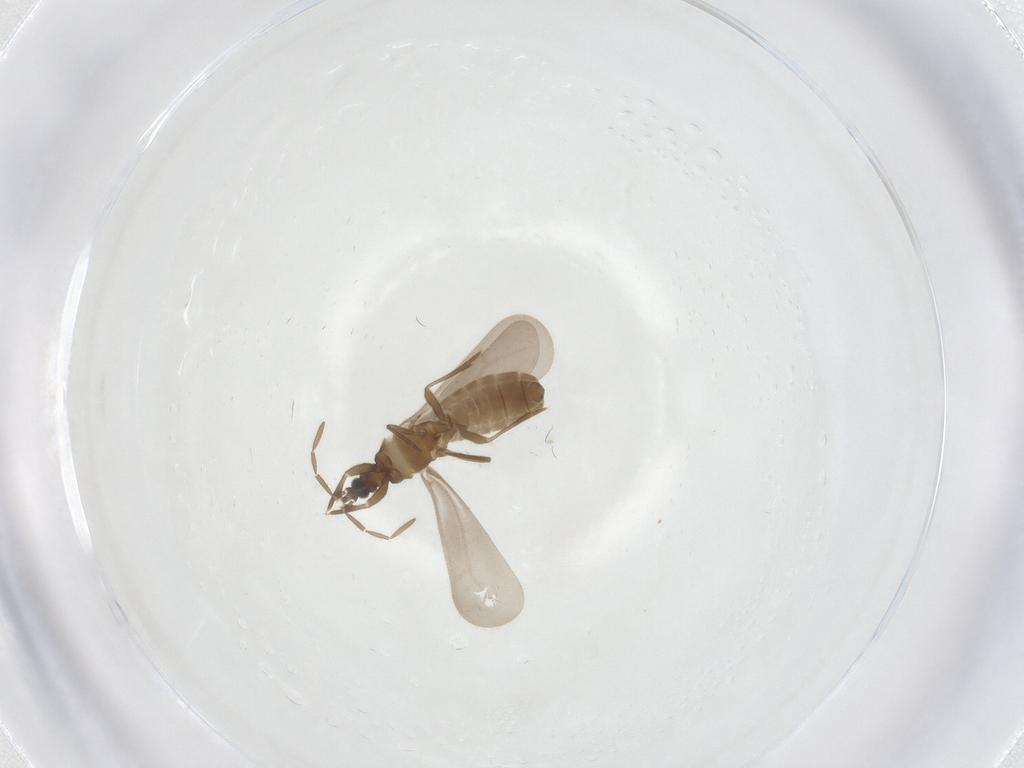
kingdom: Animalia
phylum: Arthropoda
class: Insecta
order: Hemiptera
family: Enicocephalidae
